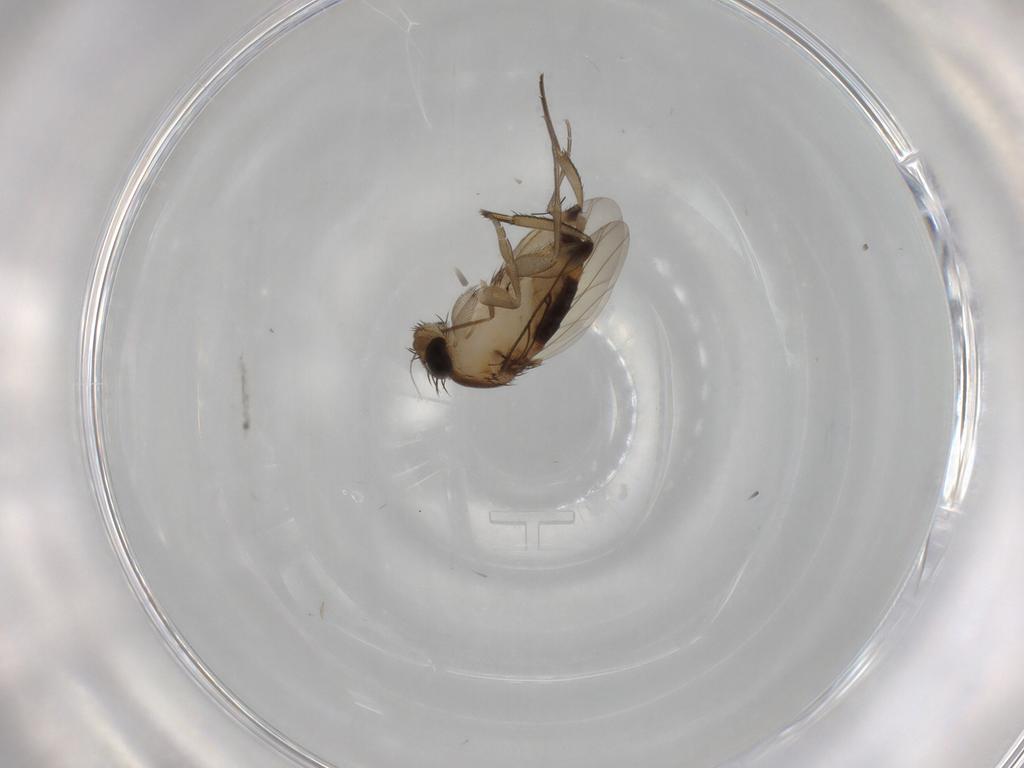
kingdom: Animalia
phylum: Arthropoda
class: Insecta
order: Diptera
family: Phoridae
